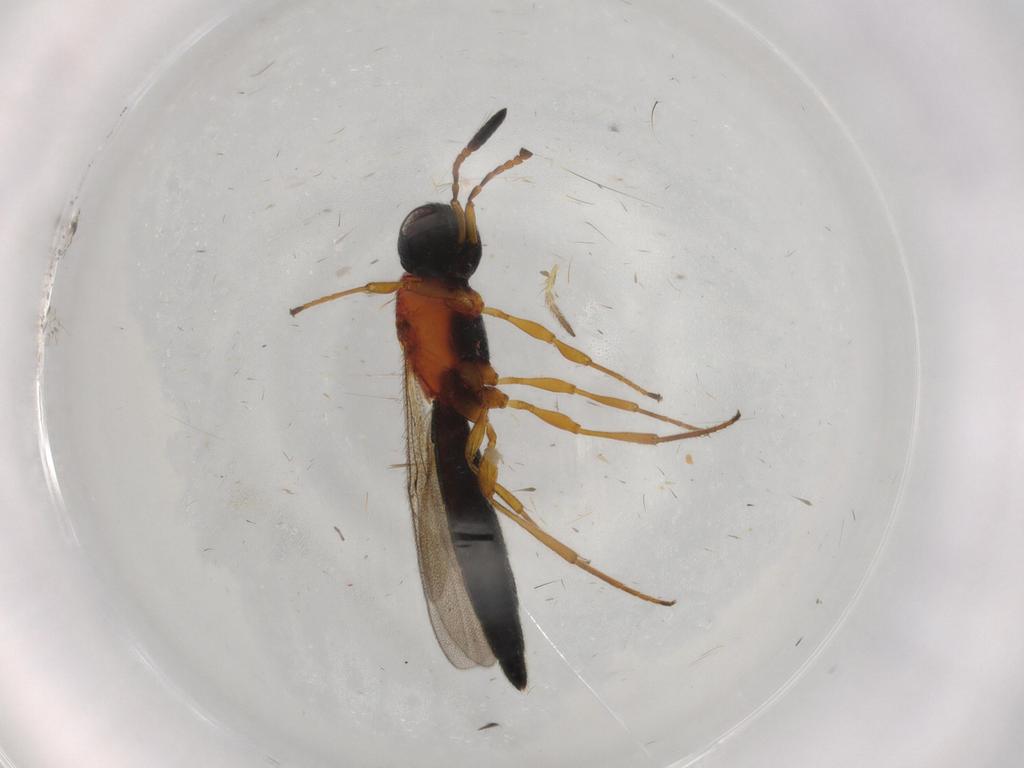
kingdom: Animalia
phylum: Arthropoda
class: Insecta
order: Hymenoptera
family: Scelionidae
